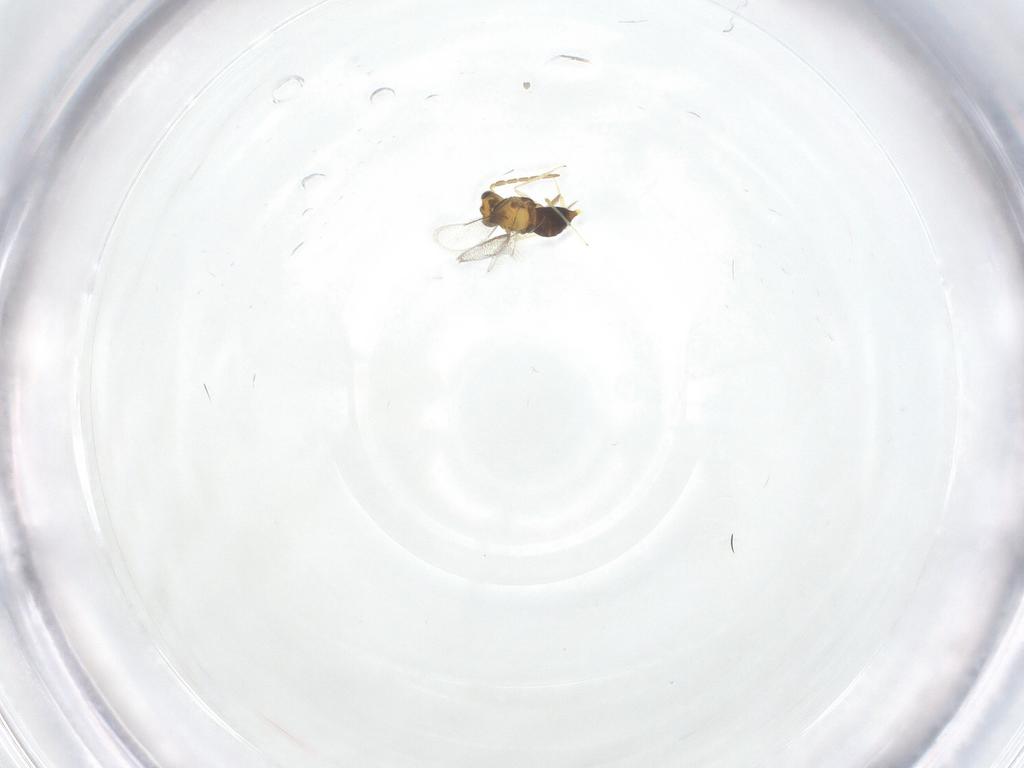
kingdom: Animalia
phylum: Arthropoda
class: Insecta
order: Hymenoptera
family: Aphelinidae
